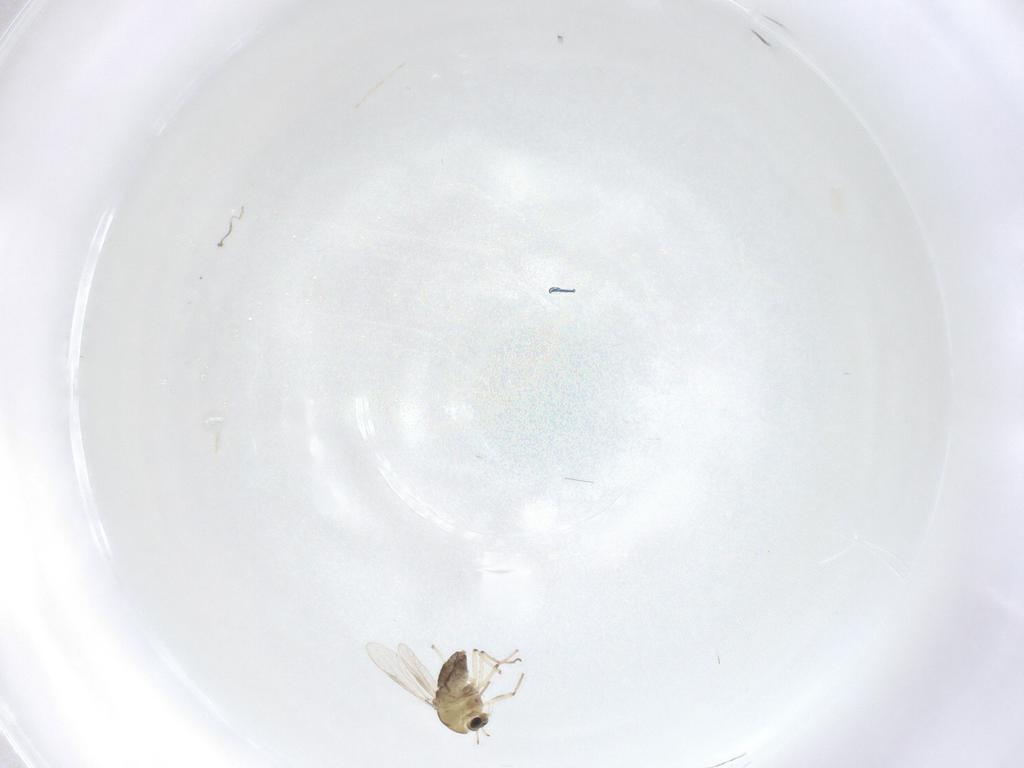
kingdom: Animalia
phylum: Arthropoda
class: Insecta
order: Diptera
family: Cecidomyiidae
